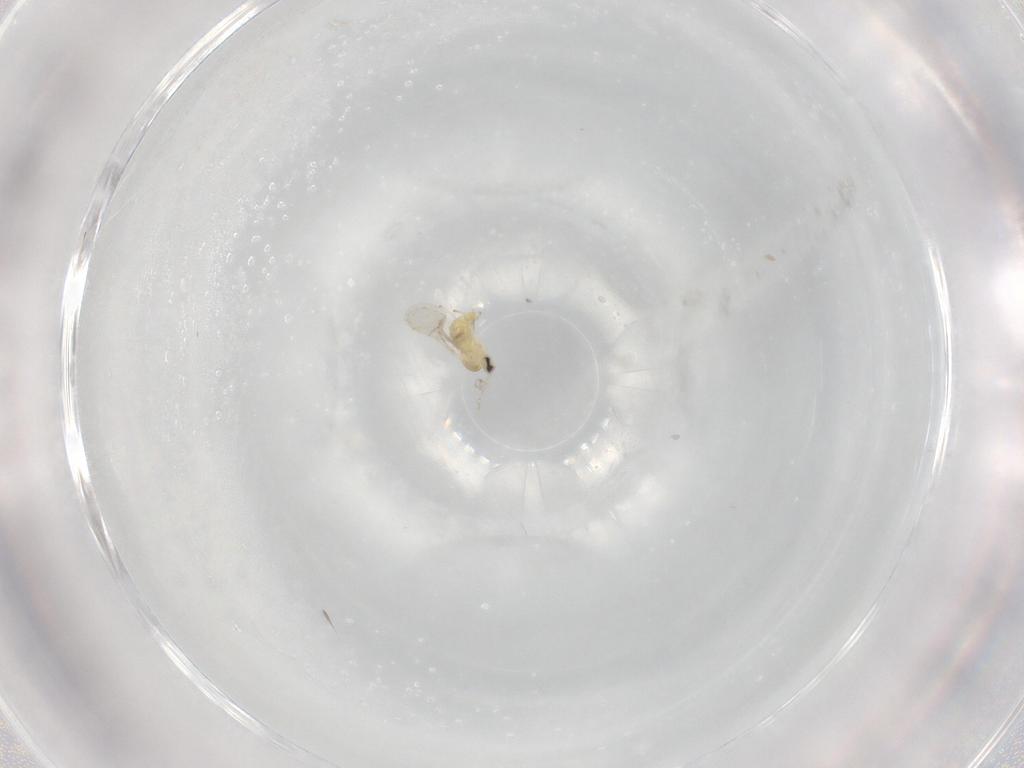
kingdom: Animalia
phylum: Arthropoda
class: Insecta
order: Diptera
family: Cecidomyiidae
